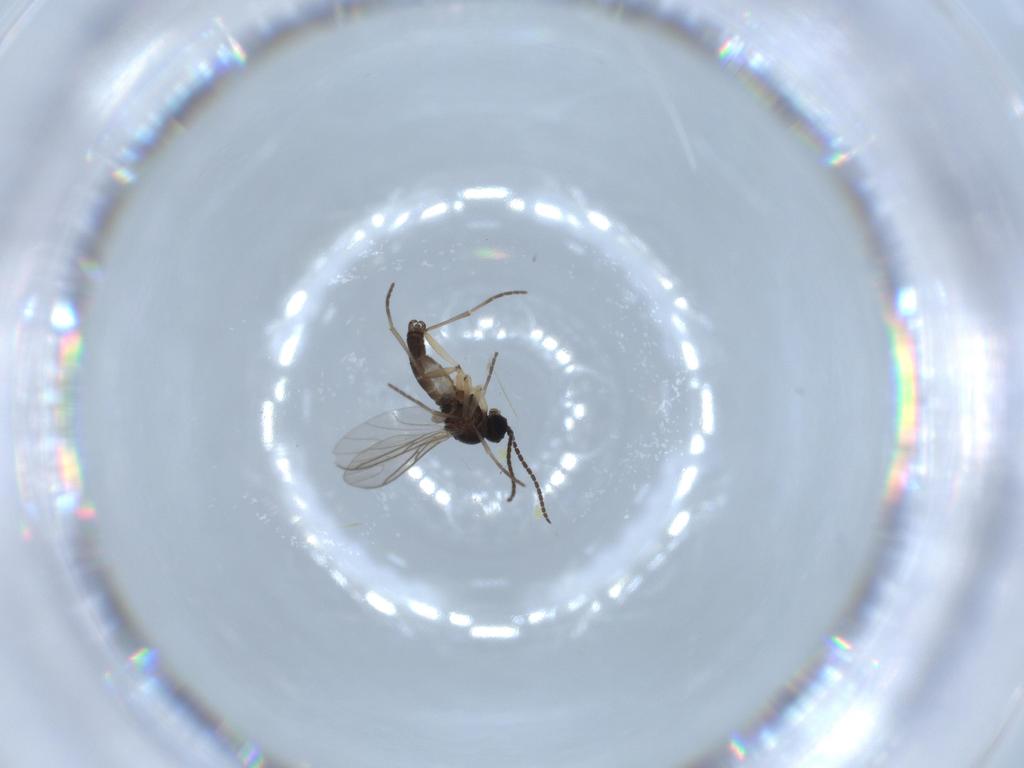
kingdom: Animalia
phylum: Arthropoda
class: Insecta
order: Diptera
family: Sciaridae
